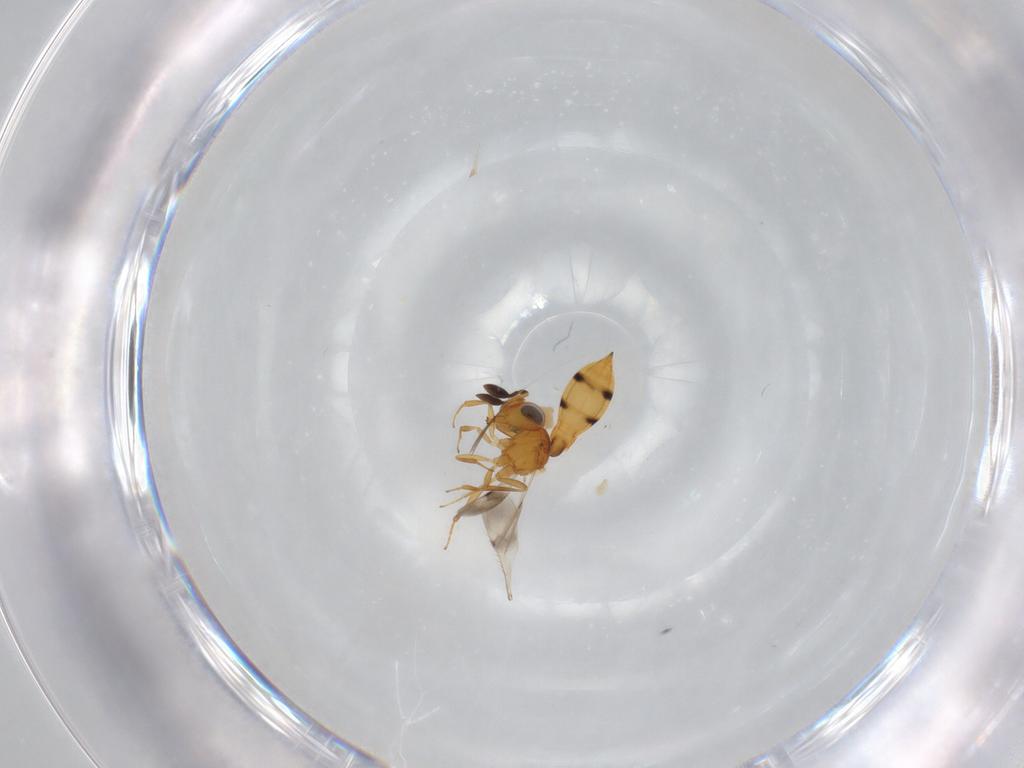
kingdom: Animalia
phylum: Arthropoda
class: Insecta
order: Hymenoptera
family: Scelionidae
